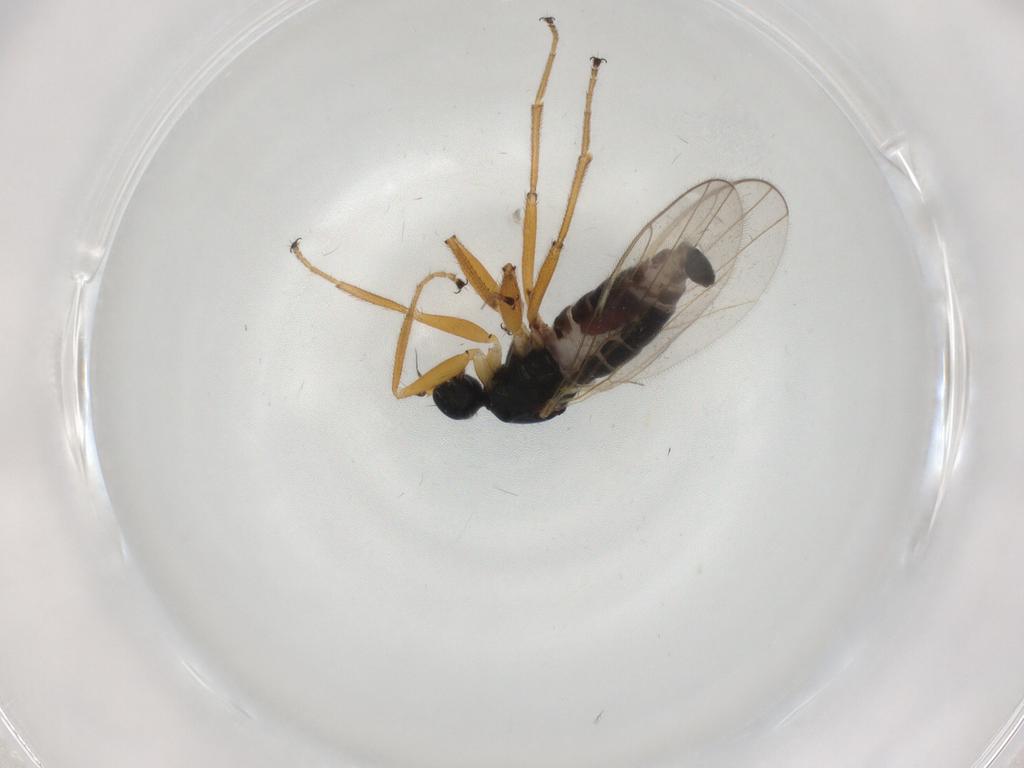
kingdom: Animalia
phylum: Arthropoda
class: Insecta
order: Diptera
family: Hybotidae
